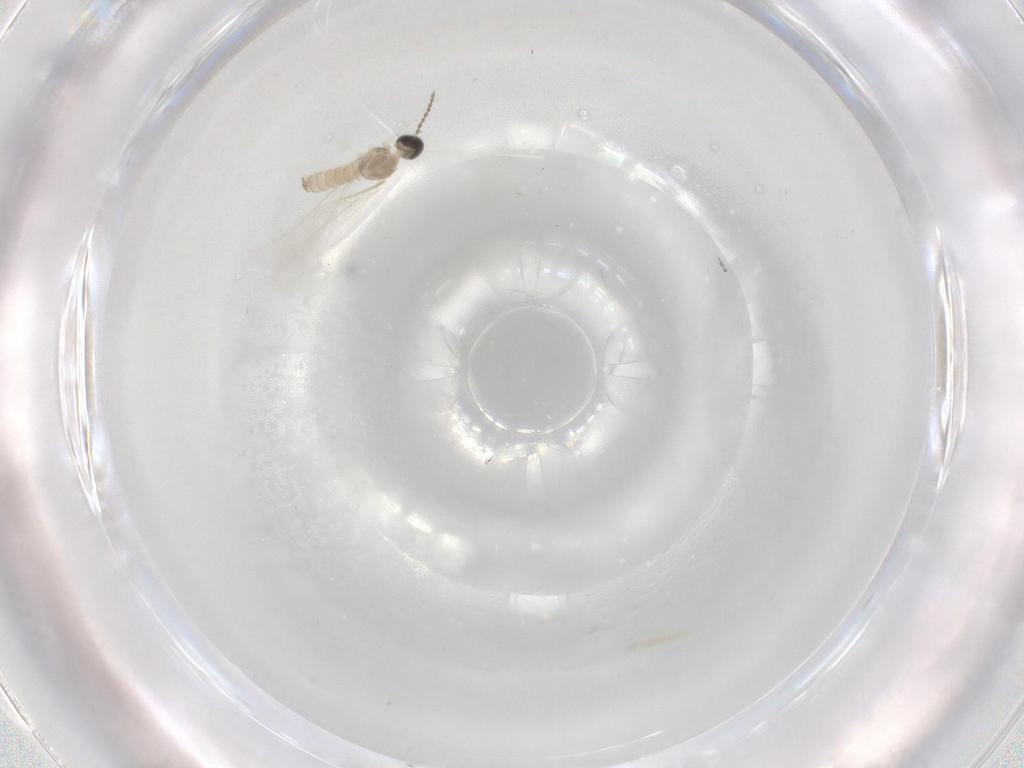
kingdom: Animalia
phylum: Arthropoda
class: Insecta
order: Diptera
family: Cecidomyiidae
